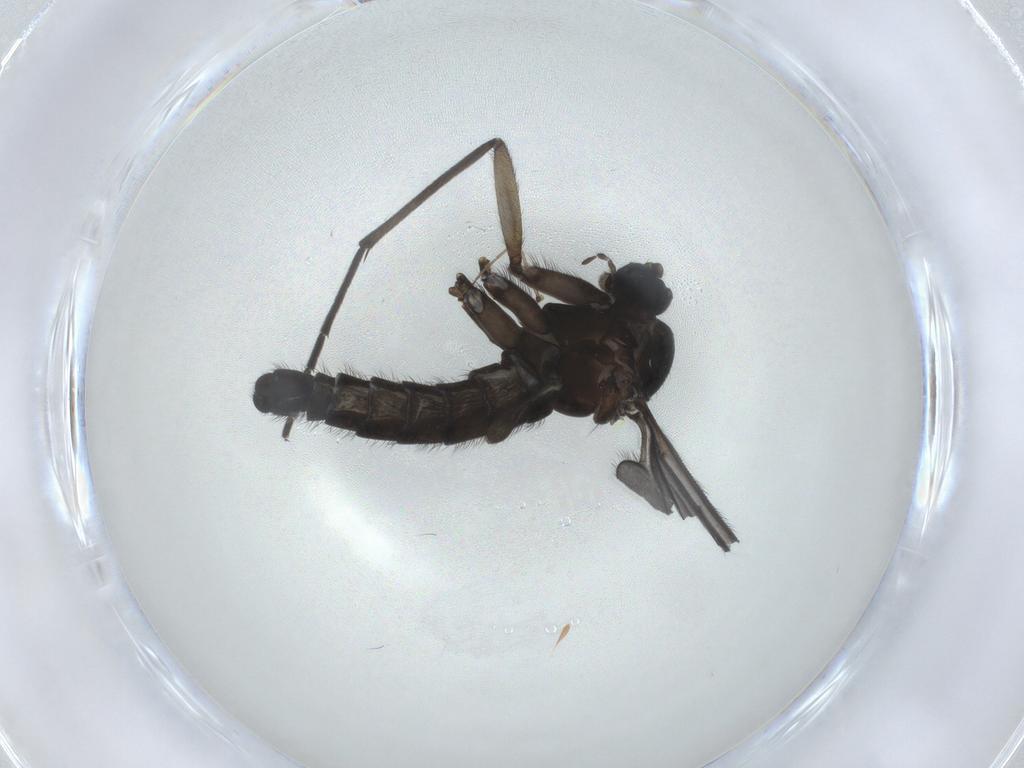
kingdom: Animalia
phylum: Arthropoda
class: Insecta
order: Diptera
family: Sciaridae
